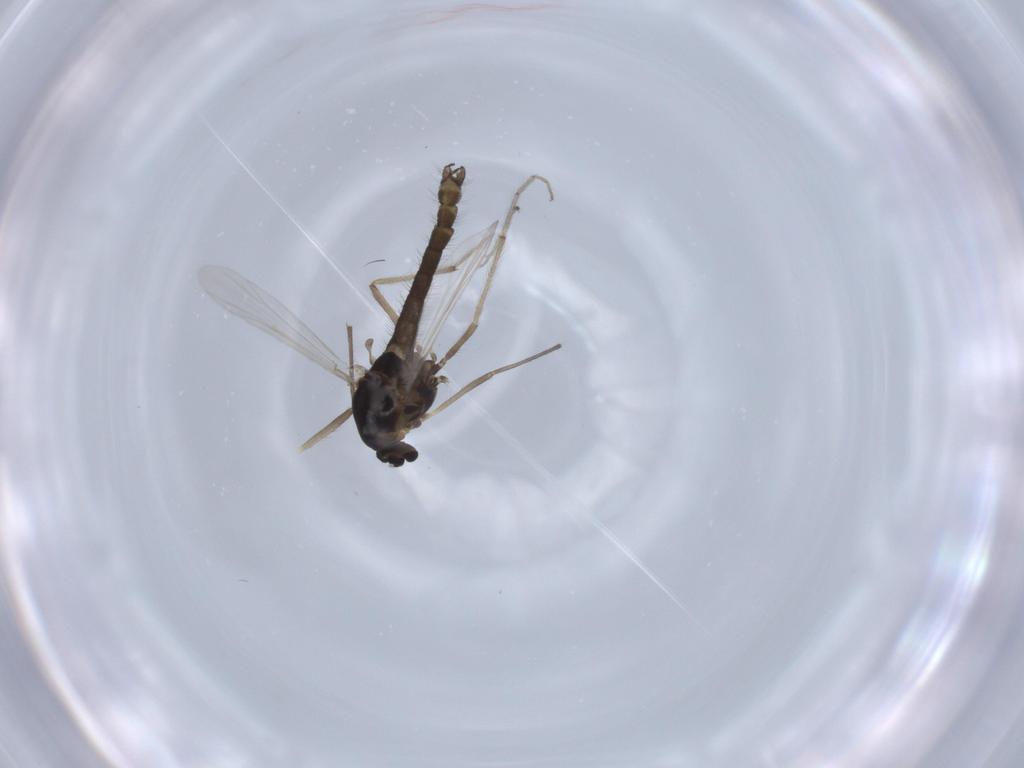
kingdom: Animalia
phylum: Arthropoda
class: Insecta
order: Diptera
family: Chironomidae
